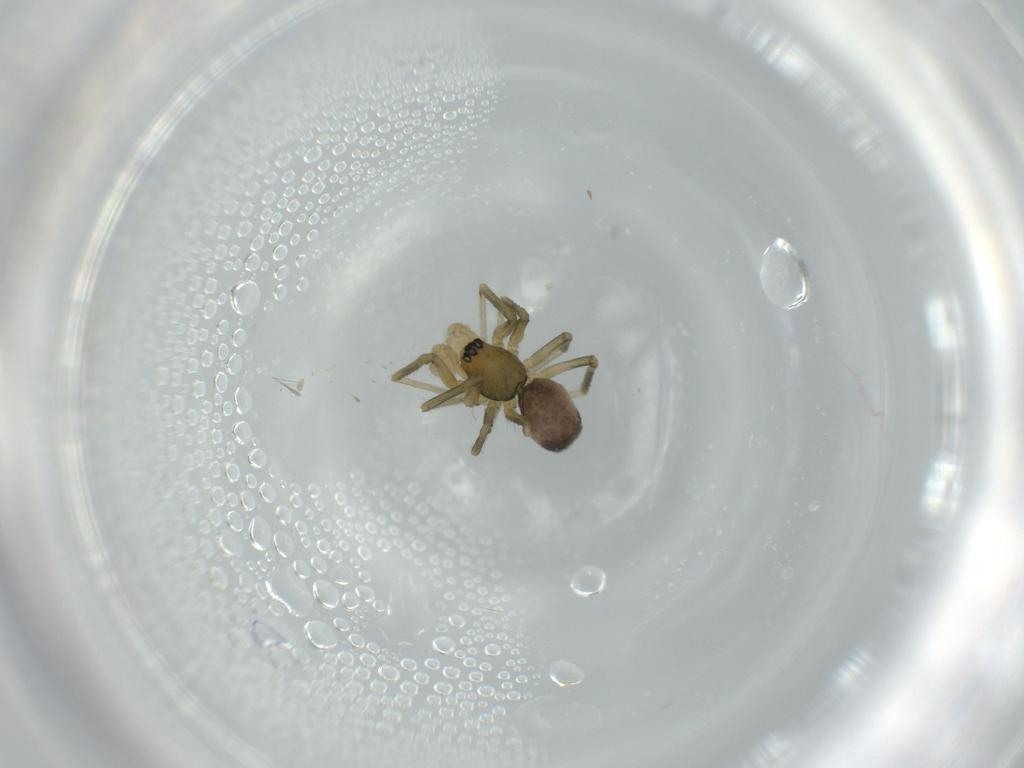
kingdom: Animalia
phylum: Arthropoda
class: Arachnida
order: Araneae
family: Linyphiidae
